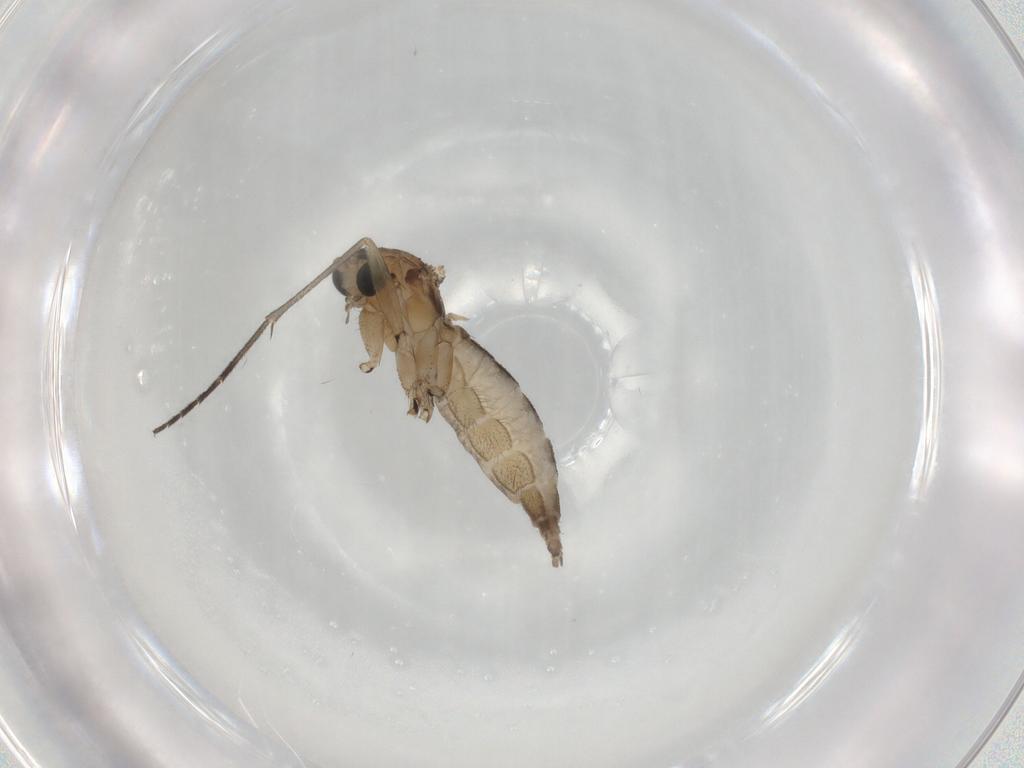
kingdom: Animalia
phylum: Arthropoda
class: Insecta
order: Diptera
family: Sciaridae
